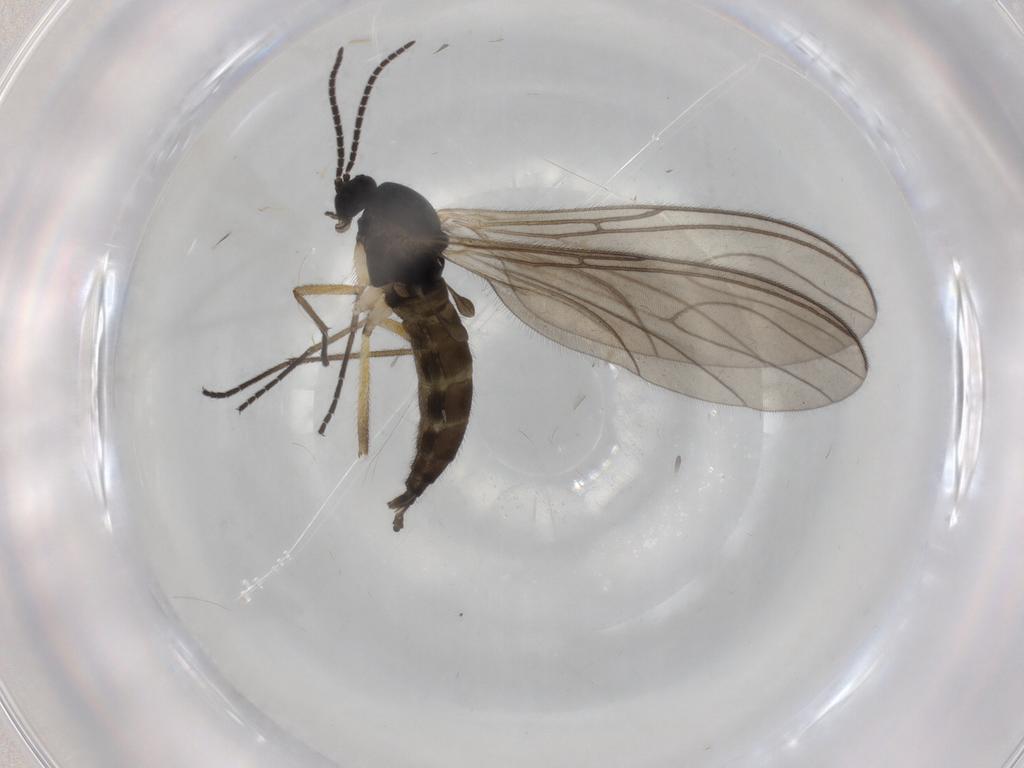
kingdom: Animalia
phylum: Arthropoda
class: Insecta
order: Diptera
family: Sciaridae
